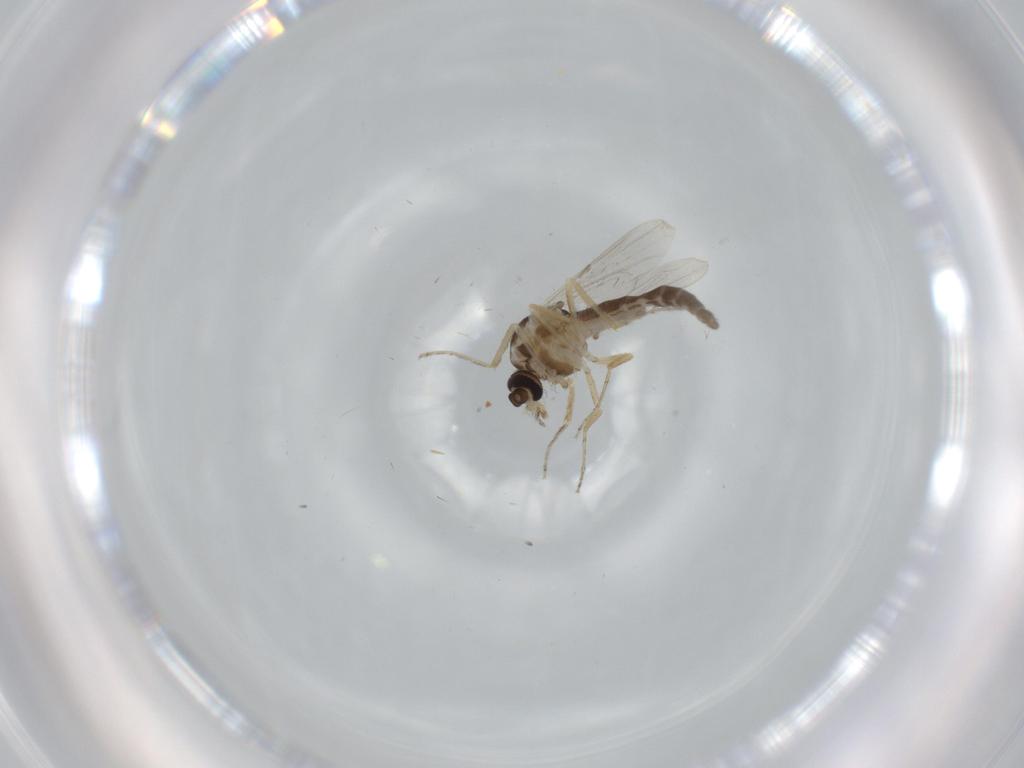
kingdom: Animalia
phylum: Arthropoda
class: Insecta
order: Diptera
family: Ceratopogonidae
